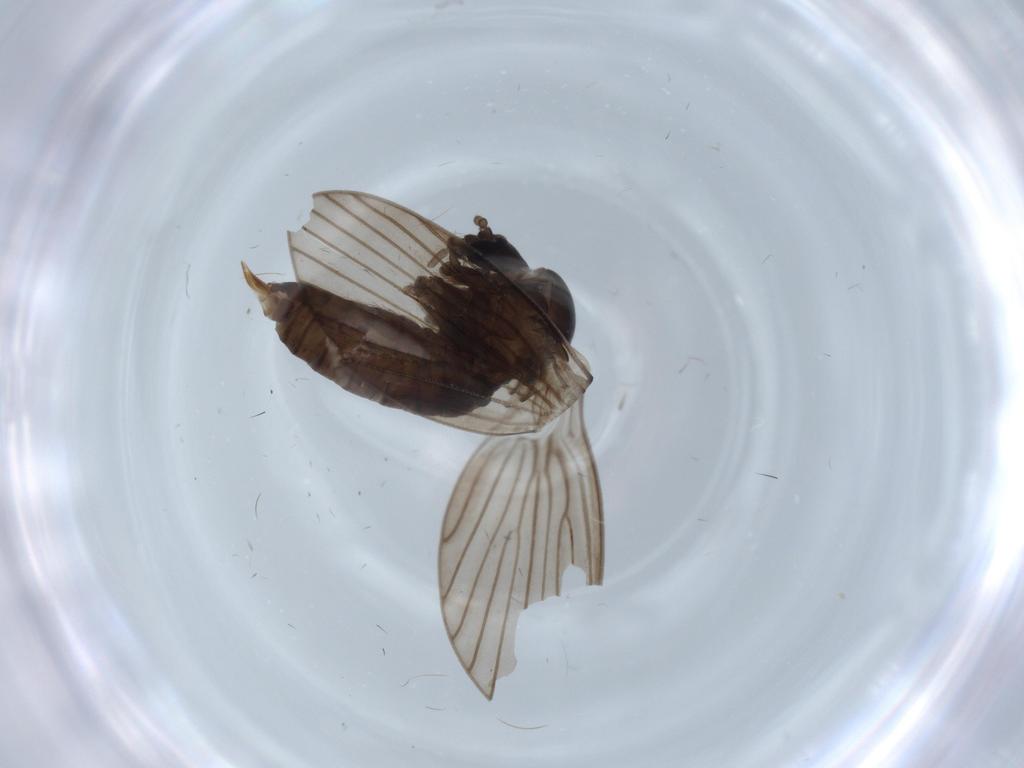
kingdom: Animalia
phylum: Arthropoda
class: Insecta
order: Diptera
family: Psychodidae
